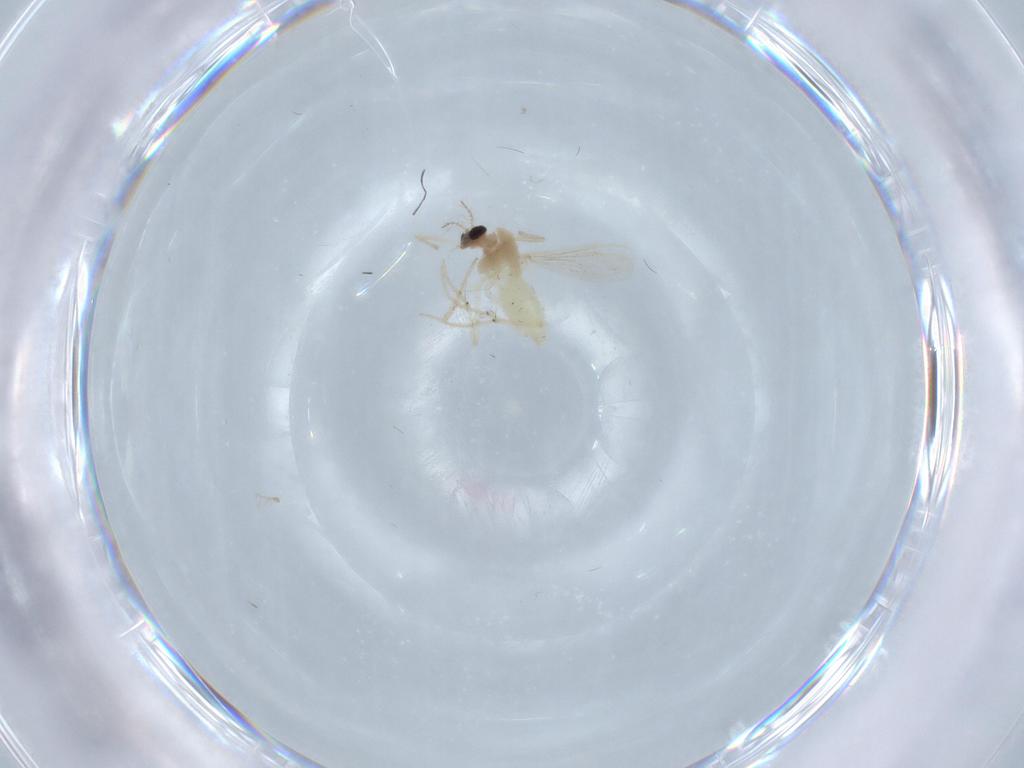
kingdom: Animalia
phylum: Arthropoda
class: Insecta
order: Diptera
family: Chironomidae
